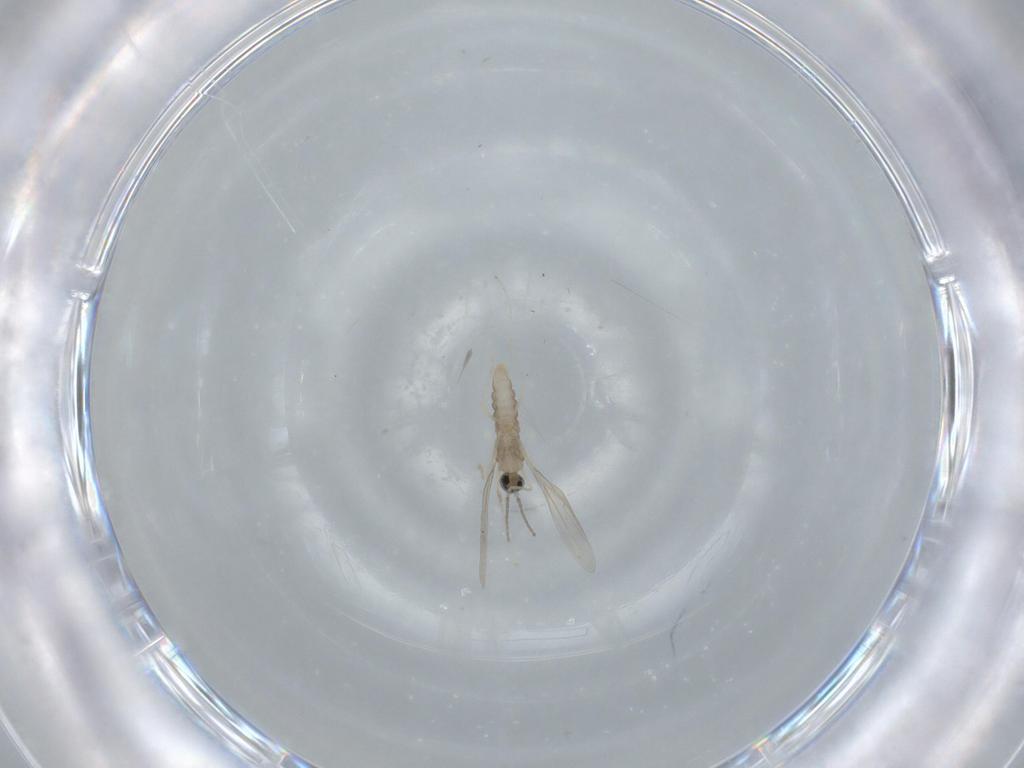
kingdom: Animalia
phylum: Arthropoda
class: Insecta
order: Diptera
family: Cecidomyiidae
